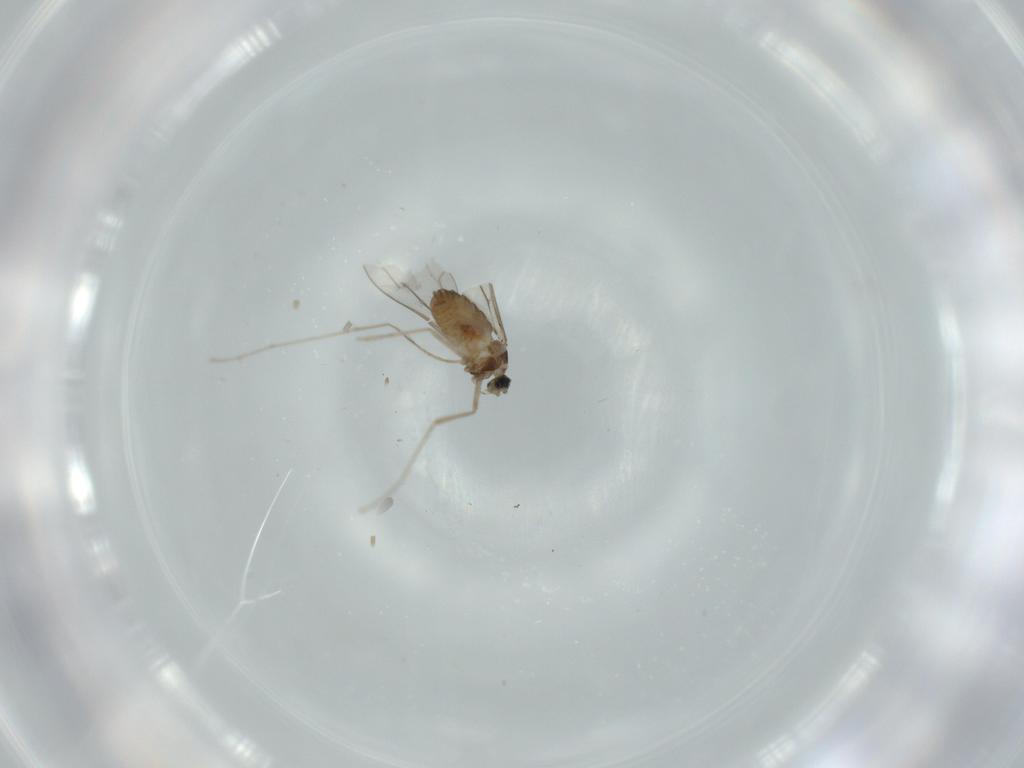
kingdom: Animalia
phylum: Arthropoda
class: Insecta
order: Diptera
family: Cecidomyiidae
